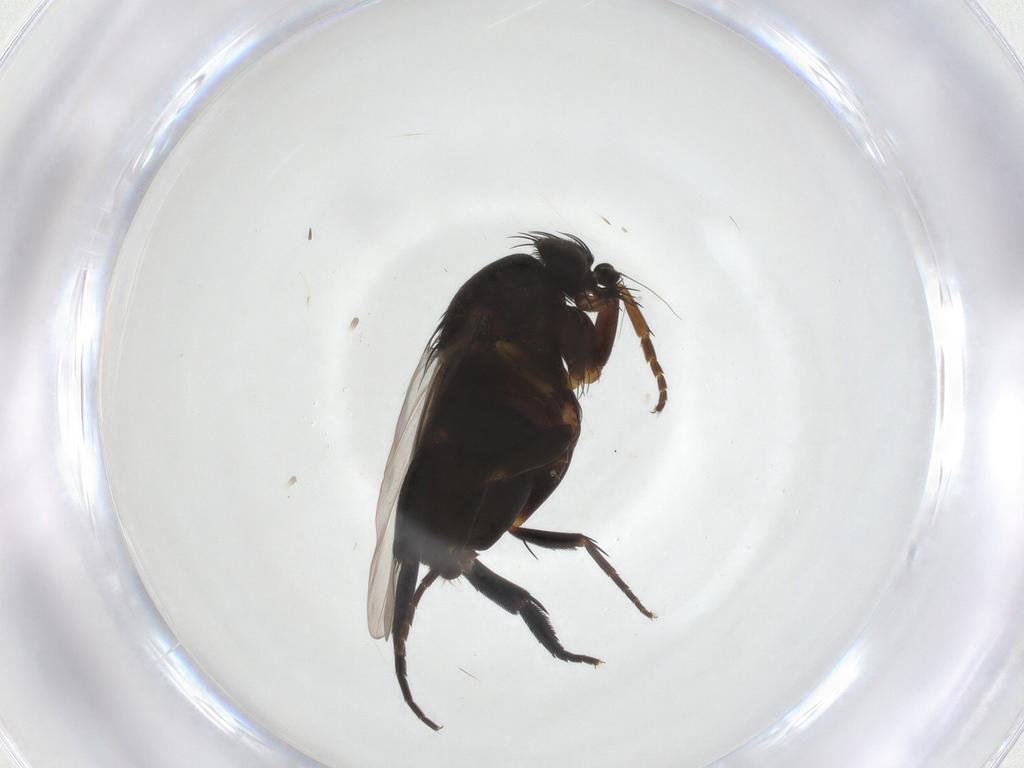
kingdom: Animalia
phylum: Arthropoda
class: Insecta
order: Diptera
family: Phoridae
